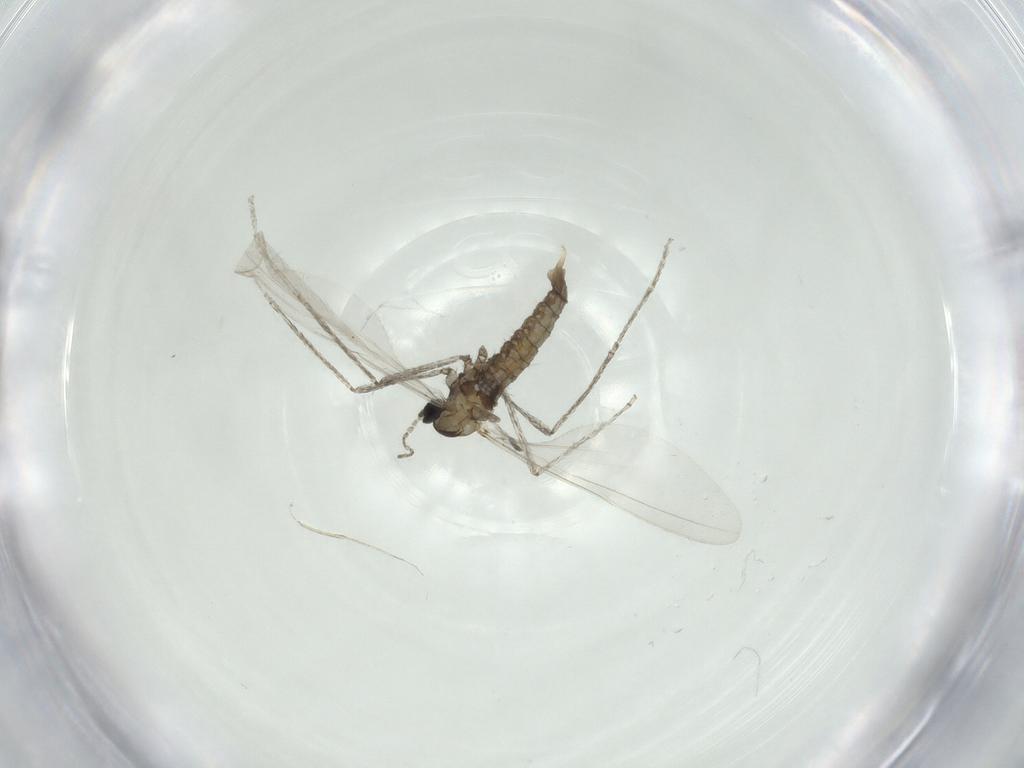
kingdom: Animalia
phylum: Arthropoda
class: Insecta
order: Diptera
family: Cecidomyiidae
